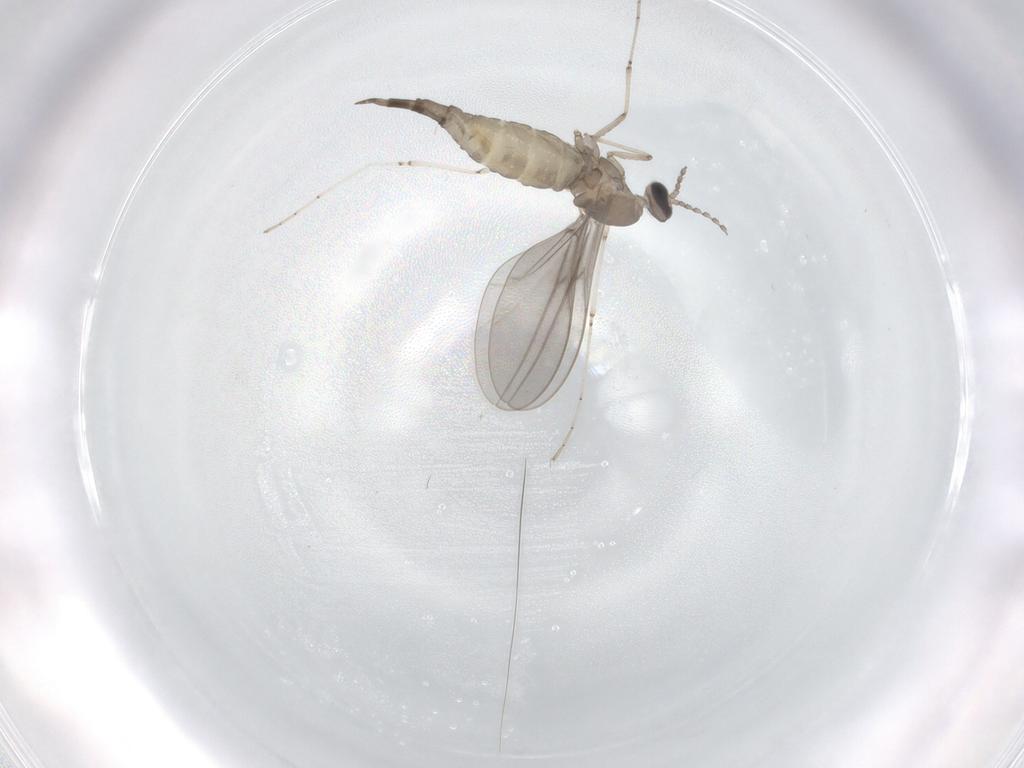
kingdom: Animalia
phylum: Arthropoda
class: Insecta
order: Diptera
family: Cecidomyiidae
